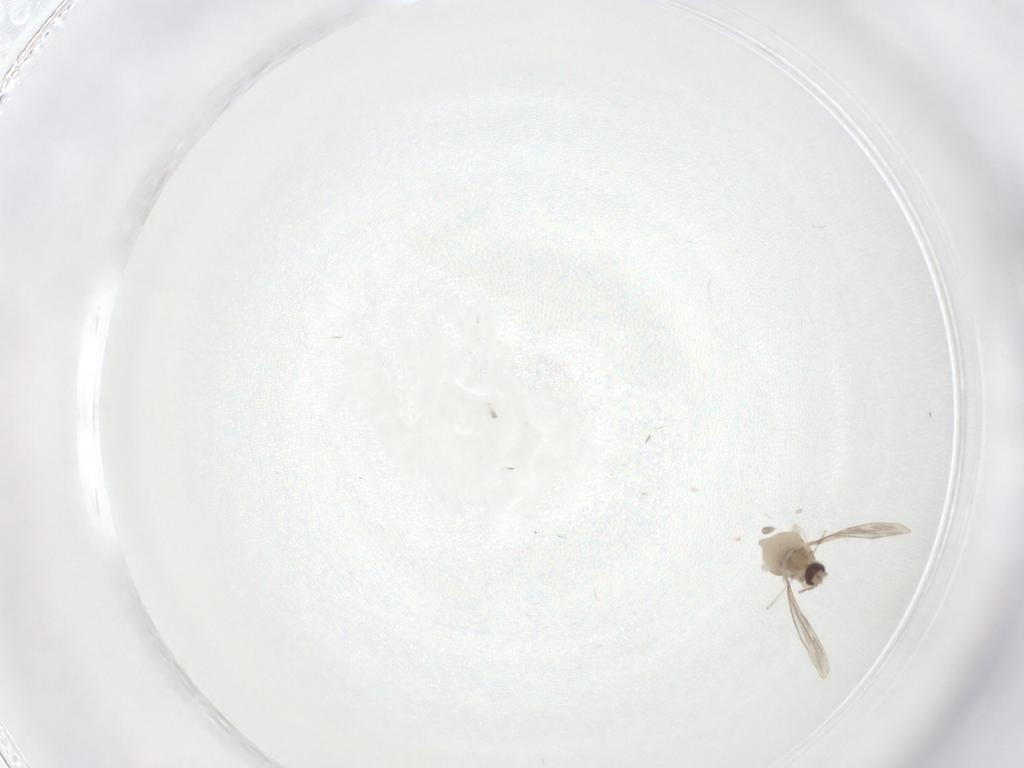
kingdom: Animalia
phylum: Arthropoda
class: Insecta
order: Diptera
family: Cecidomyiidae
